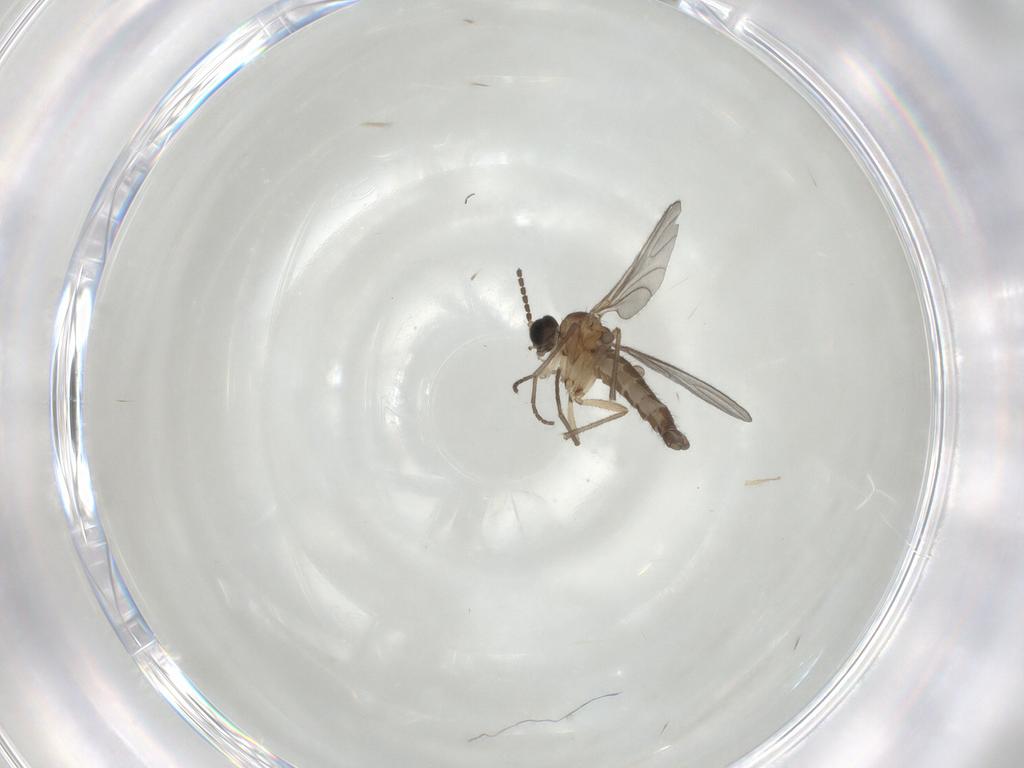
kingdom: Animalia
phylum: Arthropoda
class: Insecta
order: Diptera
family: Sciaridae
